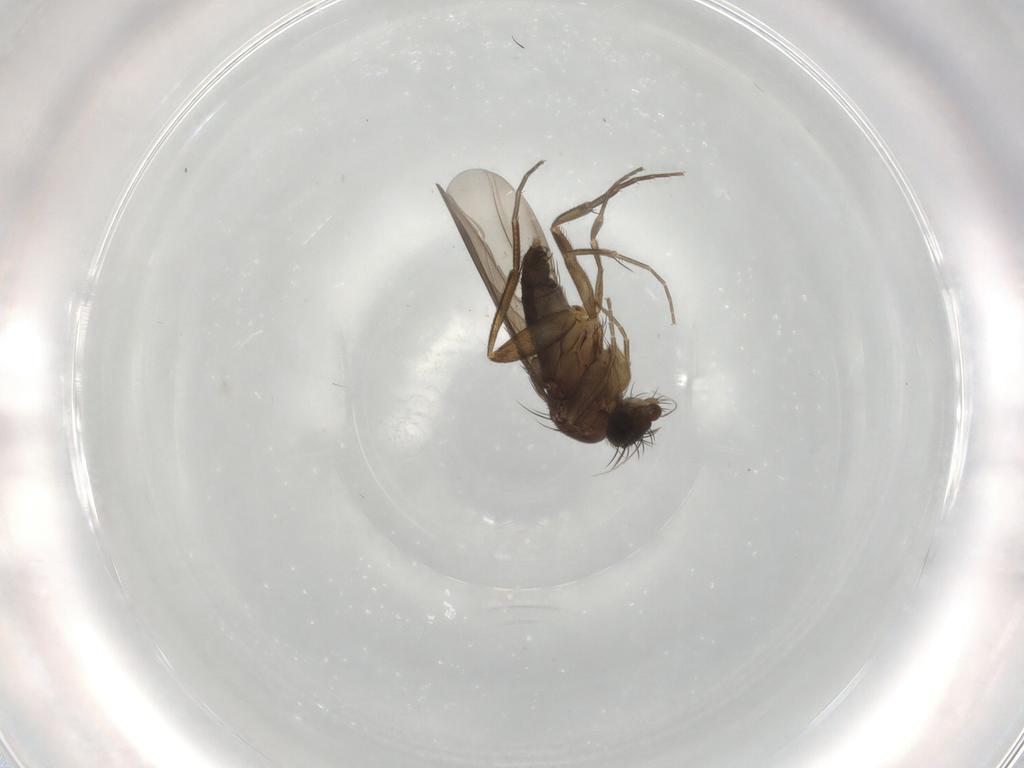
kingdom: Animalia
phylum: Arthropoda
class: Insecta
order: Diptera
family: Phoridae
